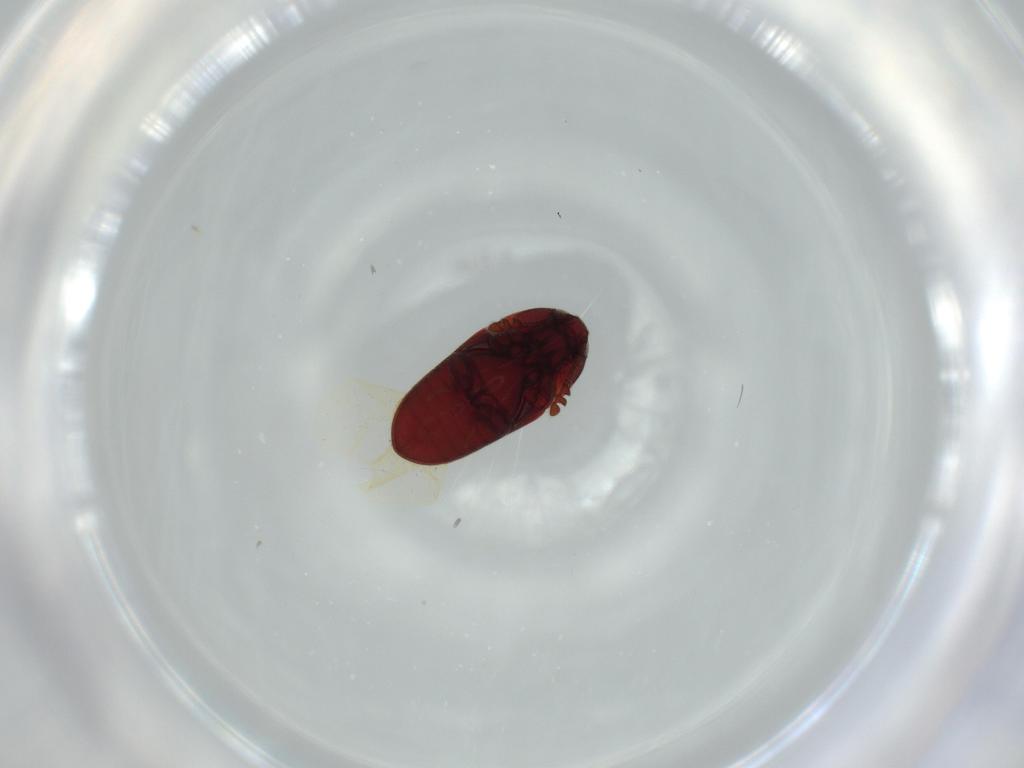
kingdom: Animalia
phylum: Arthropoda
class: Insecta
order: Coleoptera
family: Throscidae
